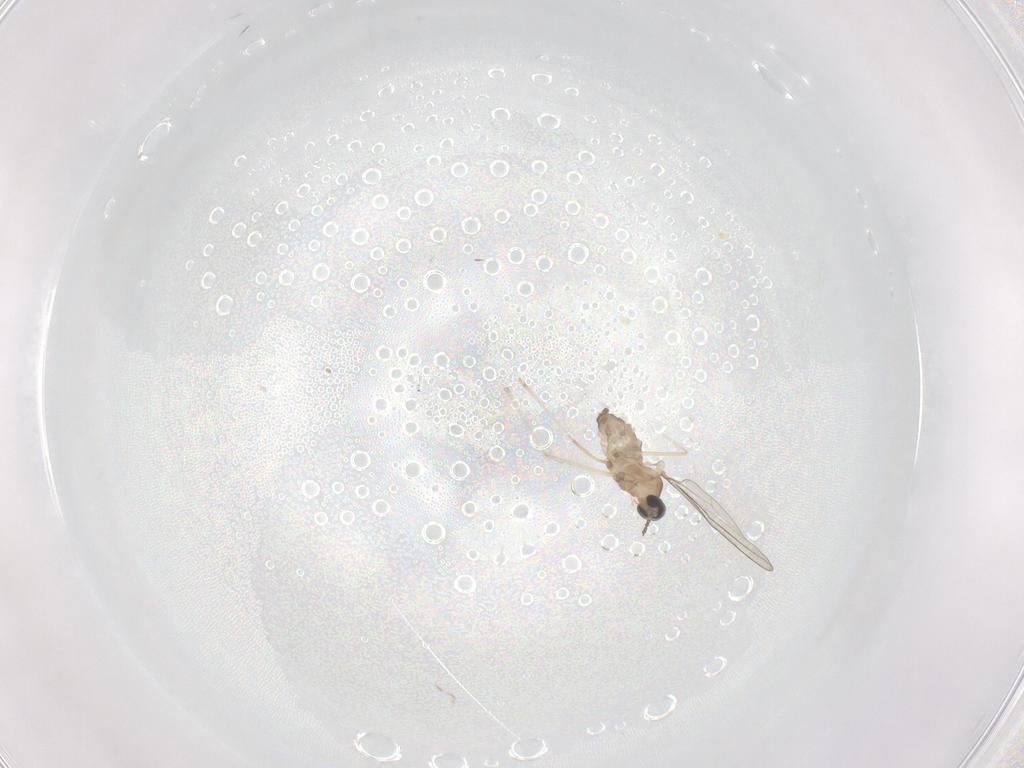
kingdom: Animalia
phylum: Arthropoda
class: Insecta
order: Diptera
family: Cecidomyiidae
